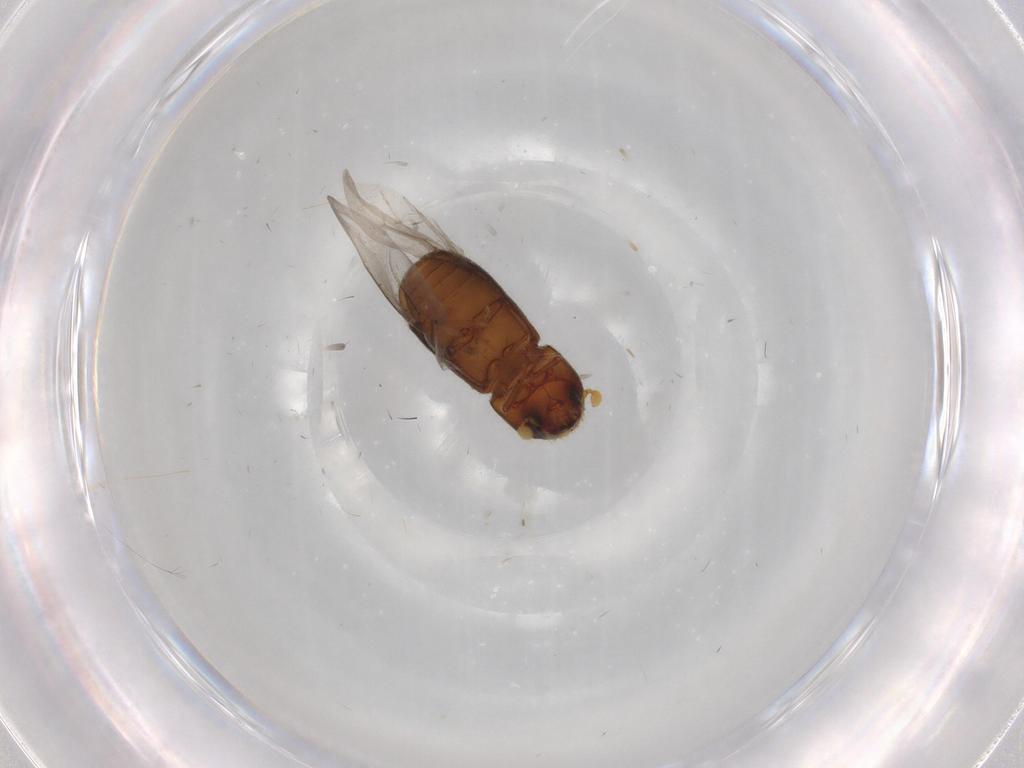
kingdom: Animalia
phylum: Arthropoda
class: Insecta
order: Coleoptera
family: Curculionidae
